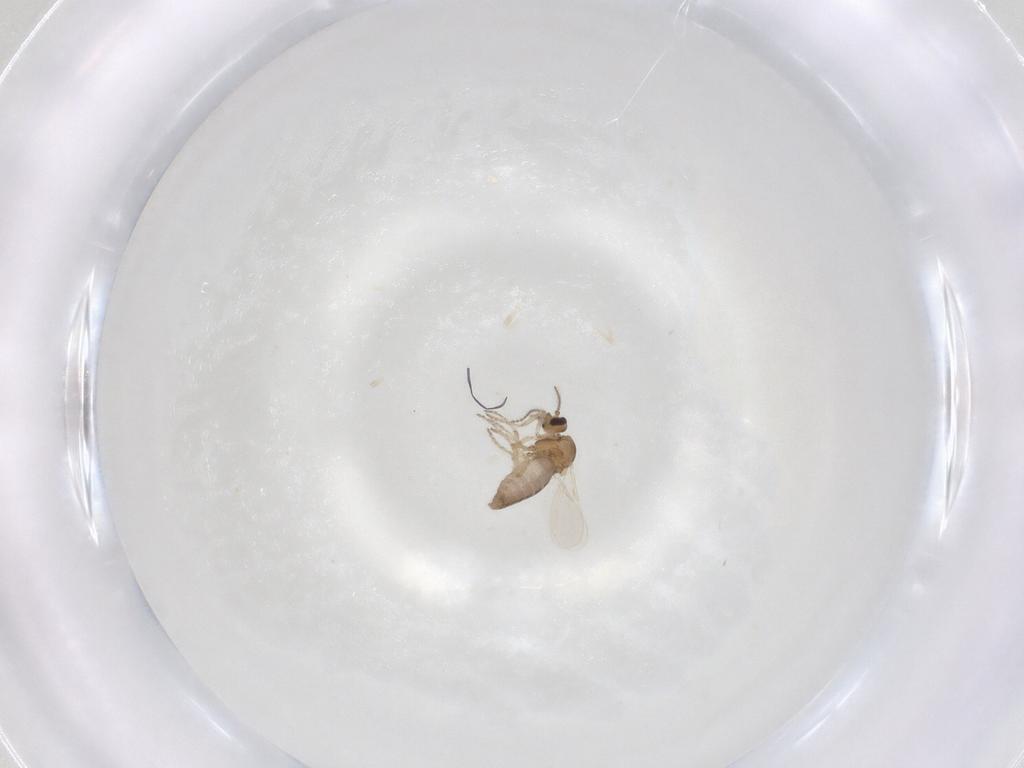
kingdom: Animalia
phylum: Arthropoda
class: Insecta
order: Diptera
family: Ceratopogonidae
